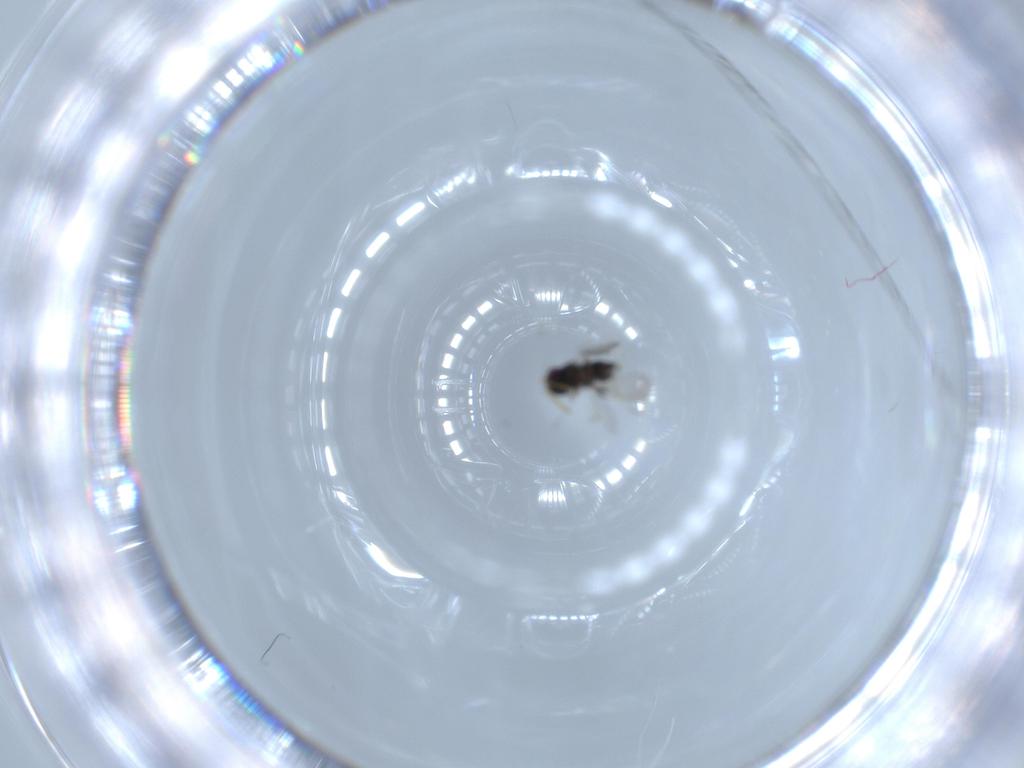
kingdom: Animalia
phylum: Arthropoda
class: Insecta
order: Hymenoptera
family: Aphelinidae
